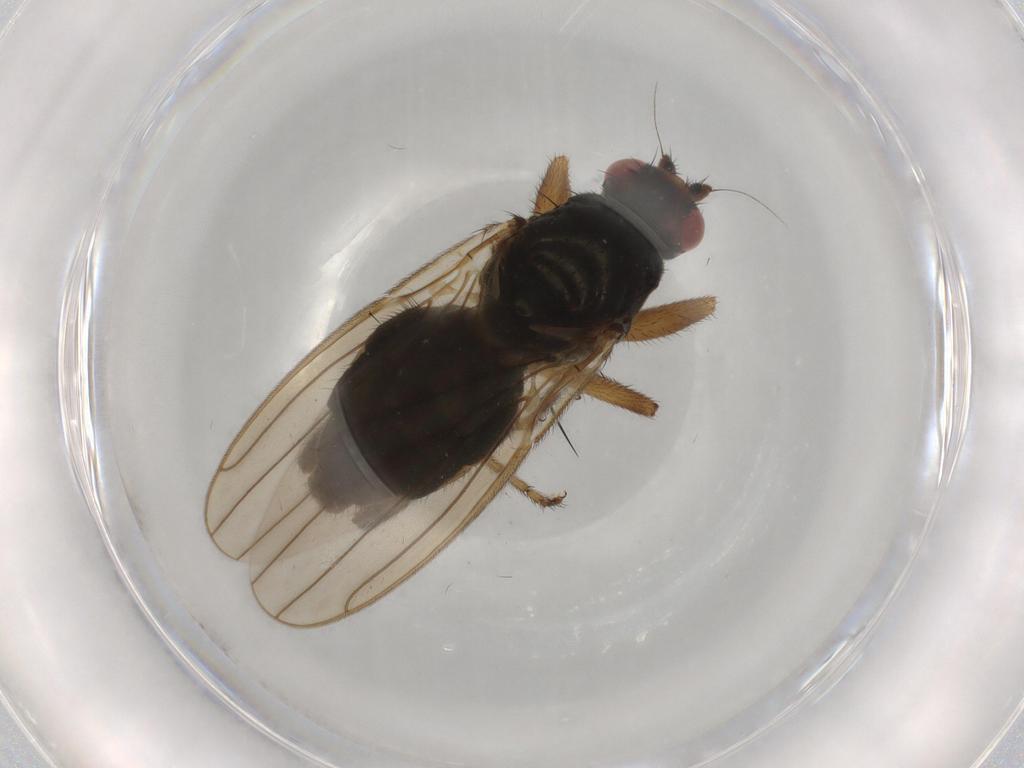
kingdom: Animalia
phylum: Arthropoda
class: Insecta
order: Diptera
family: Sphaeroceridae
